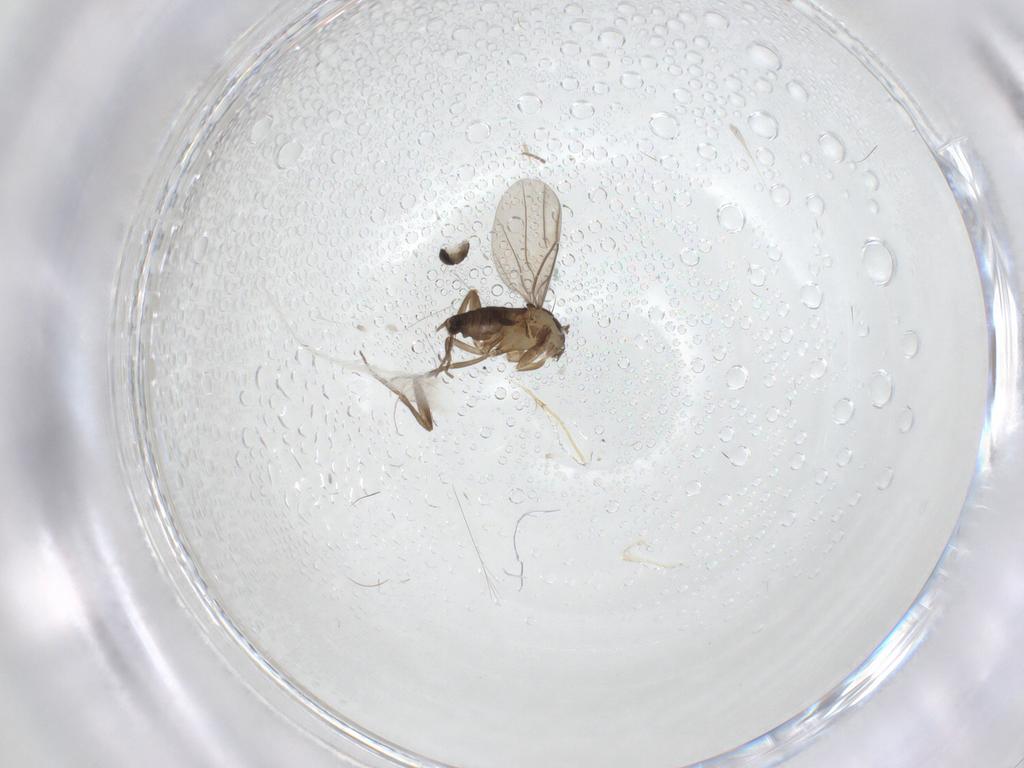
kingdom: Animalia
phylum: Arthropoda
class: Insecta
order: Diptera
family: Phoridae
